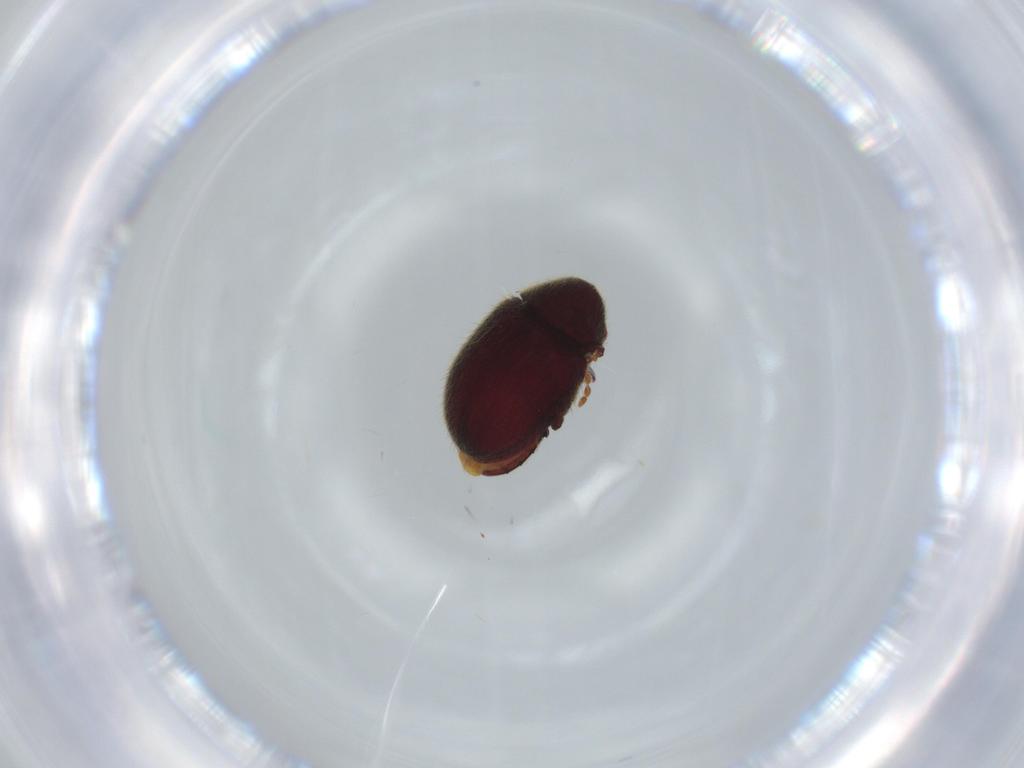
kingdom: Animalia
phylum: Arthropoda
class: Insecta
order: Coleoptera
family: Ptinidae
